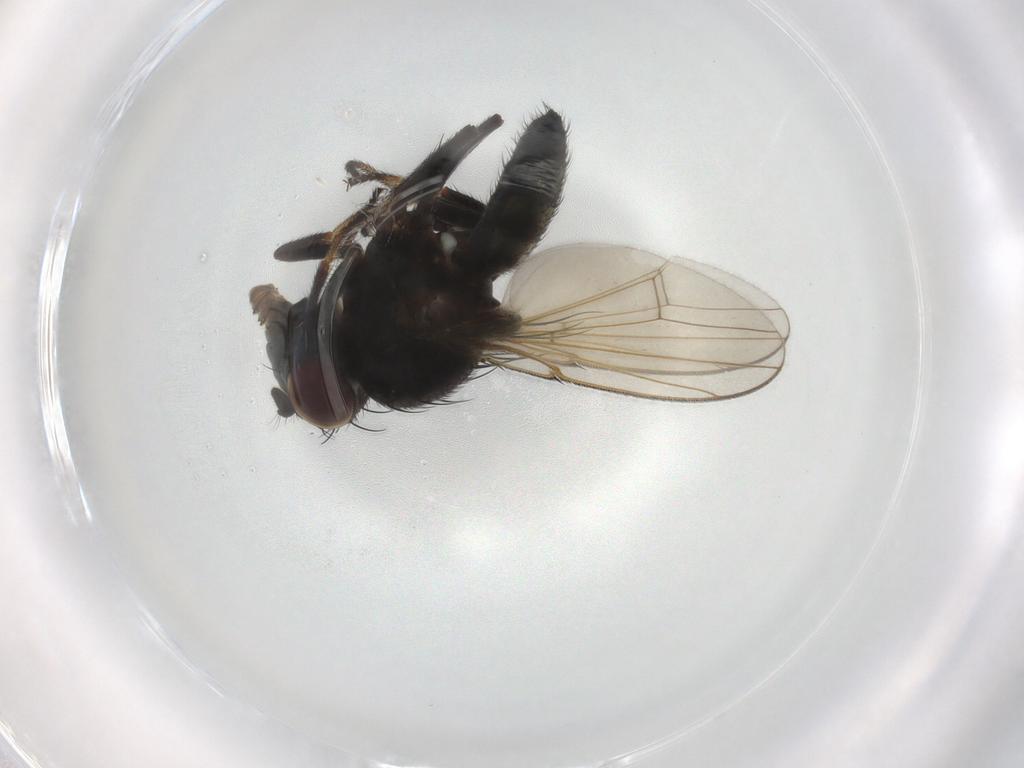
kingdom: Animalia
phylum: Arthropoda
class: Insecta
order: Diptera
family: Ephydridae
